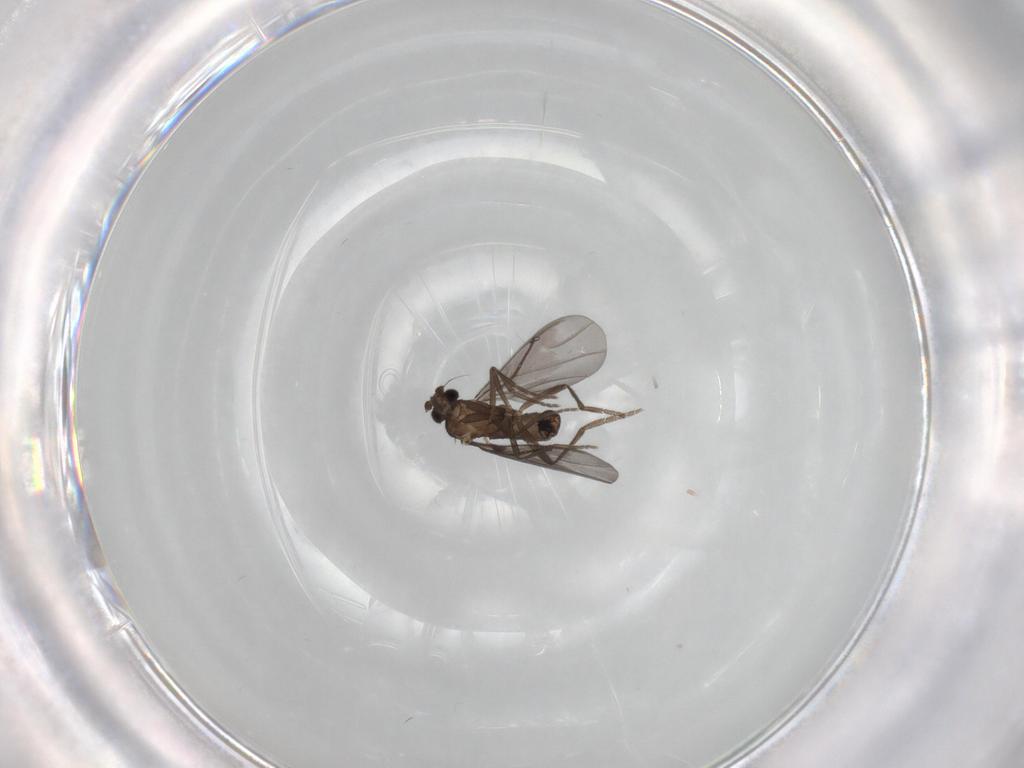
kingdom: Animalia
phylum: Arthropoda
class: Insecta
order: Diptera
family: Phoridae
